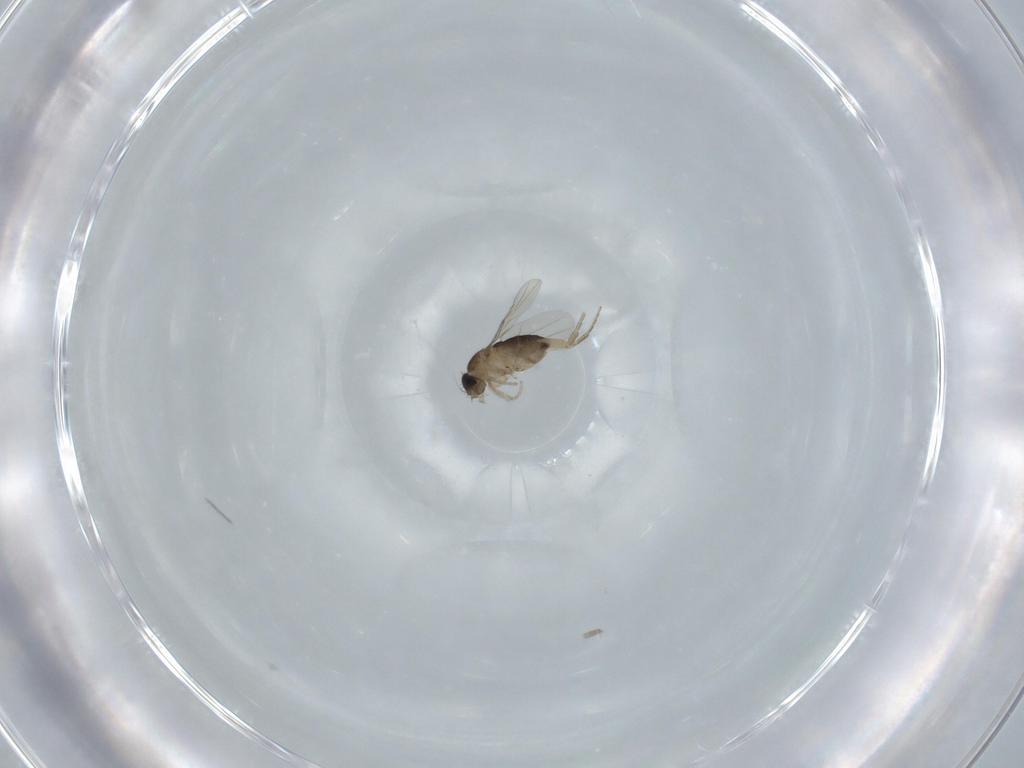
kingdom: Animalia
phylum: Arthropoda
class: Insecta
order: Diptera
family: Phoridae
